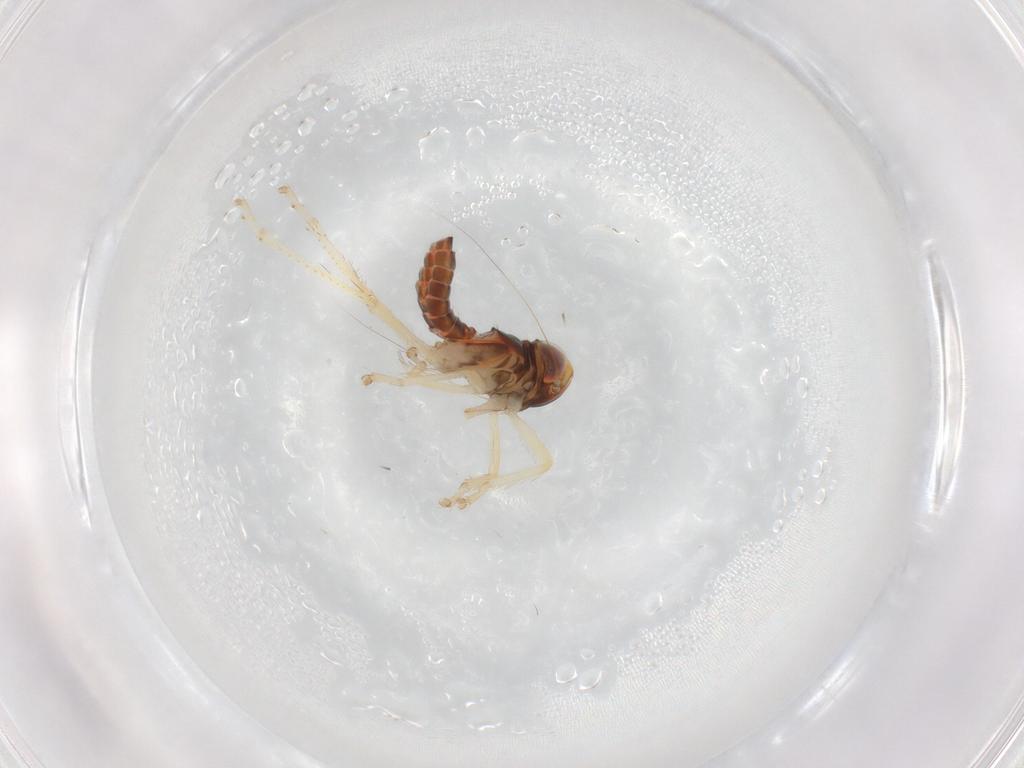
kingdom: Animalia
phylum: Arthropoda
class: Insecta
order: Hemiptera
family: Cicadellidae
